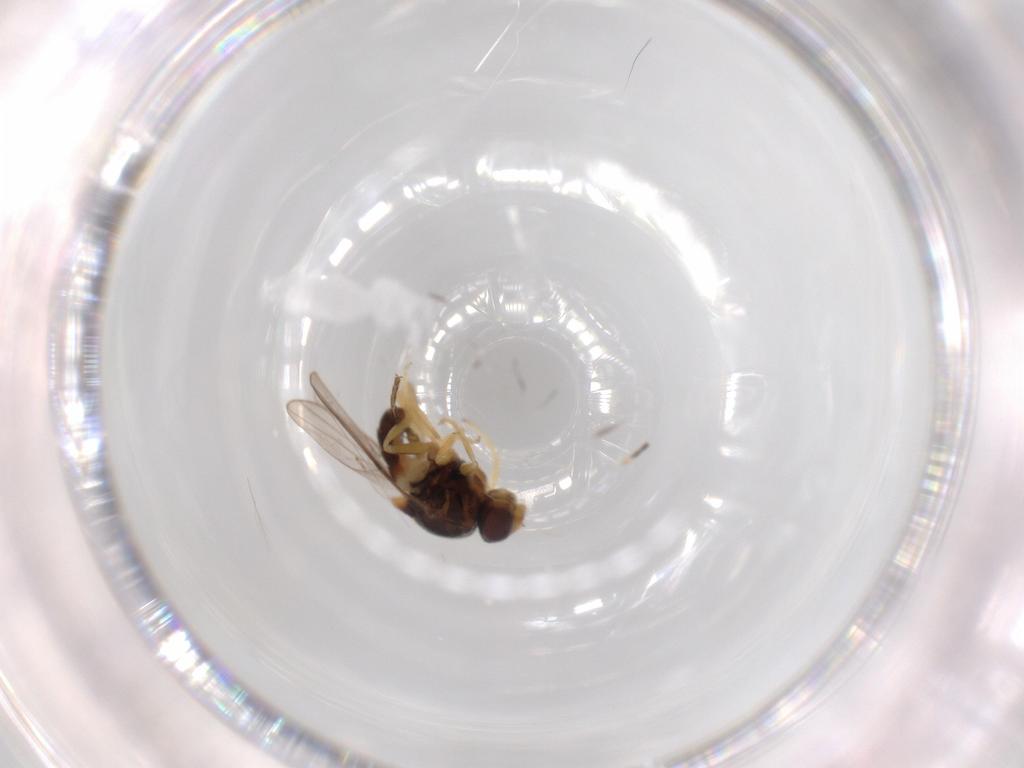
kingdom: Animalia
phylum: Arthropoda
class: Insecta
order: Diptera
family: Chloropidae
